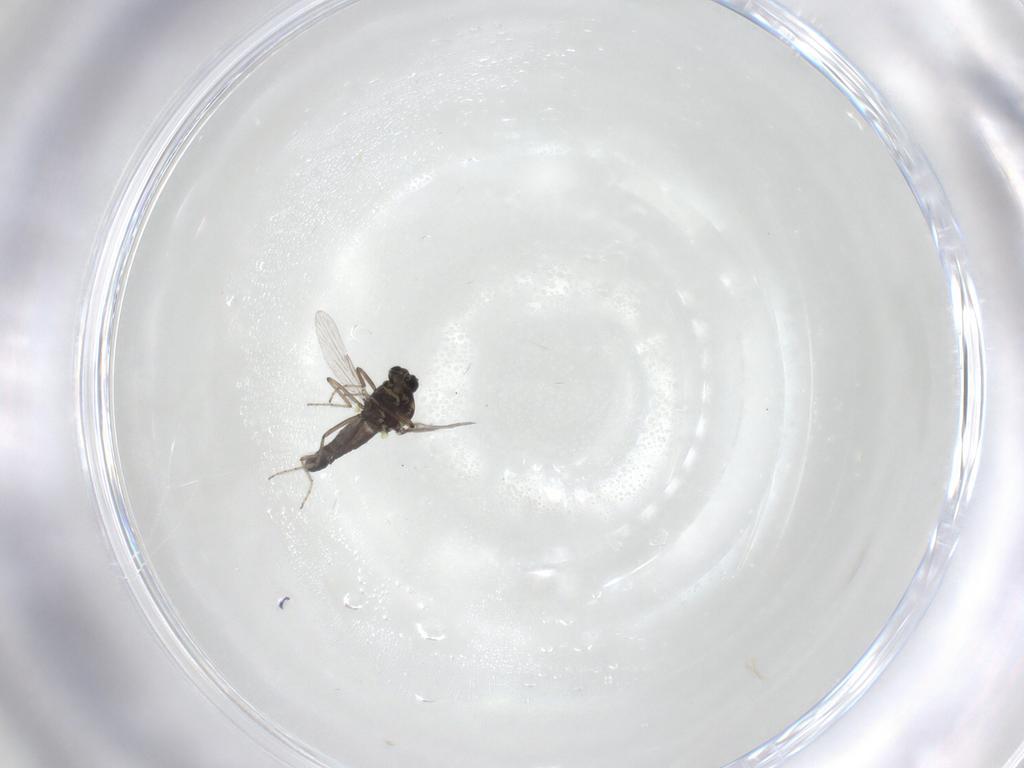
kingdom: Animalia
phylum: Arthropoda
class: Insecta
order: Diptera
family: Ceratopogonidae
